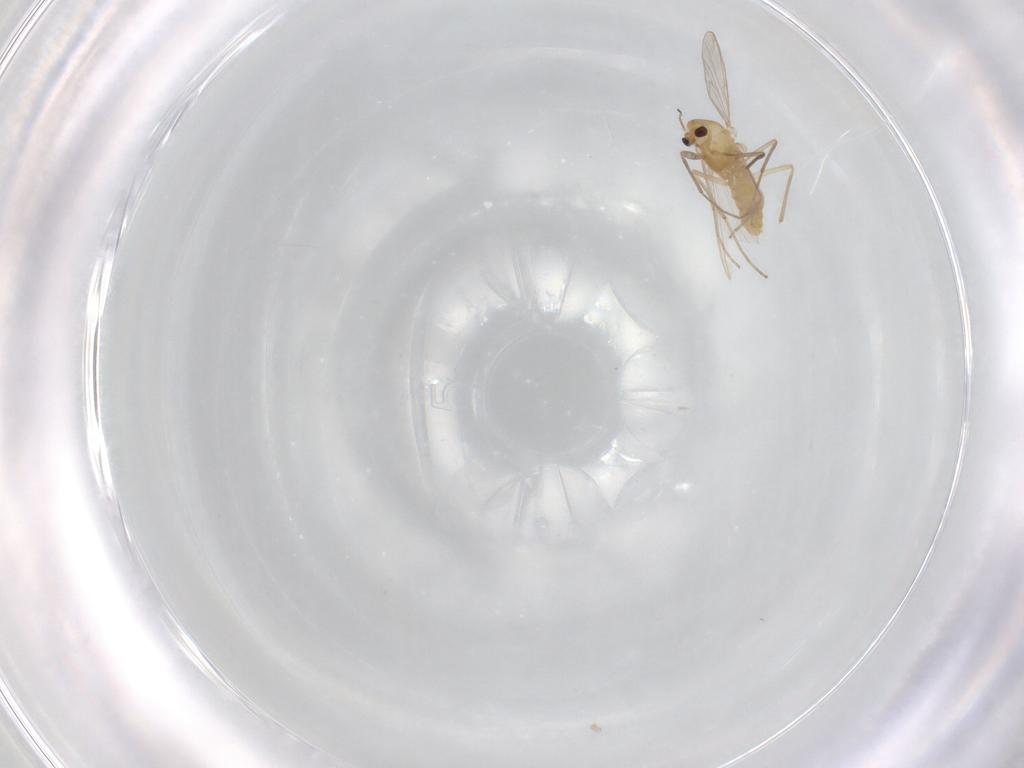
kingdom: Animalia
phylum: Arthropoda
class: Insecta
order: Diptera
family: Chironomidae
